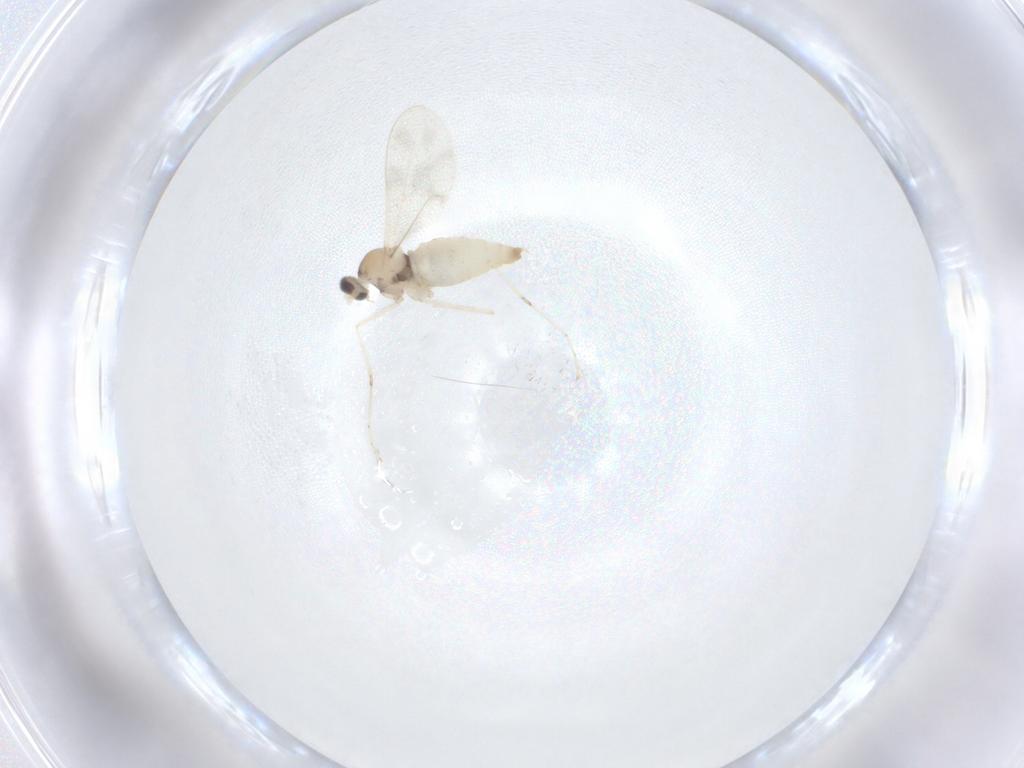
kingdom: Animalia
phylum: Arthropoda
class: Insecta
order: Diptera
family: Cecidomyiidae
